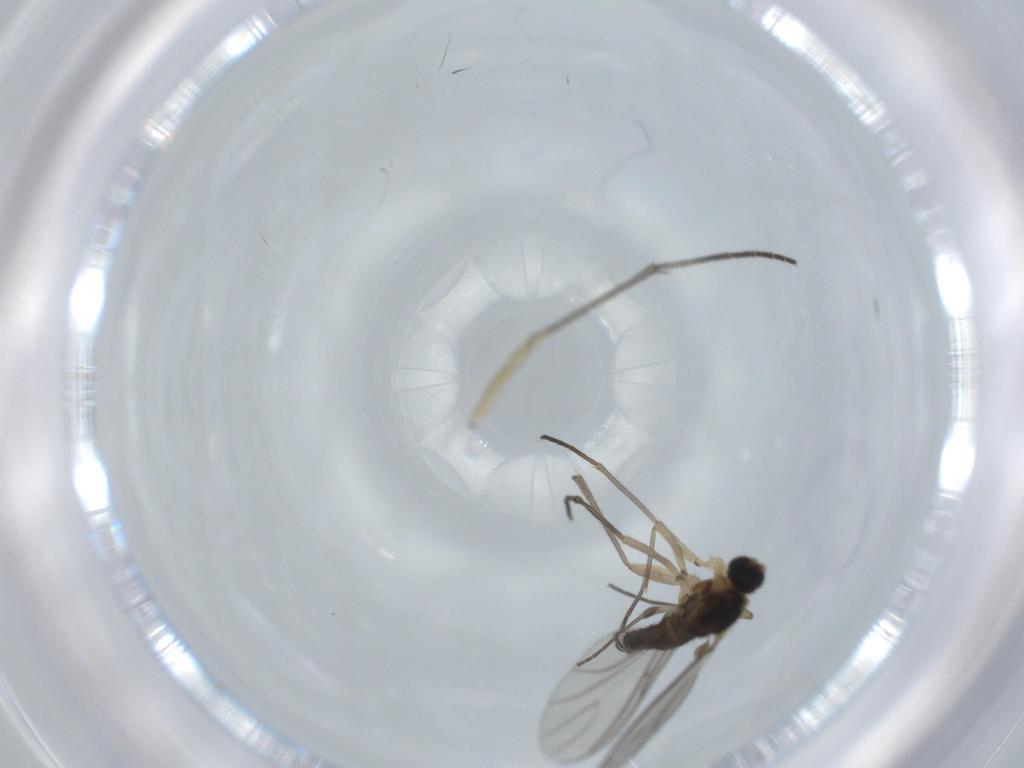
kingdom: Animalia
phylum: Arthropoda
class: Insecta
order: Diptera
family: Sciaridae
